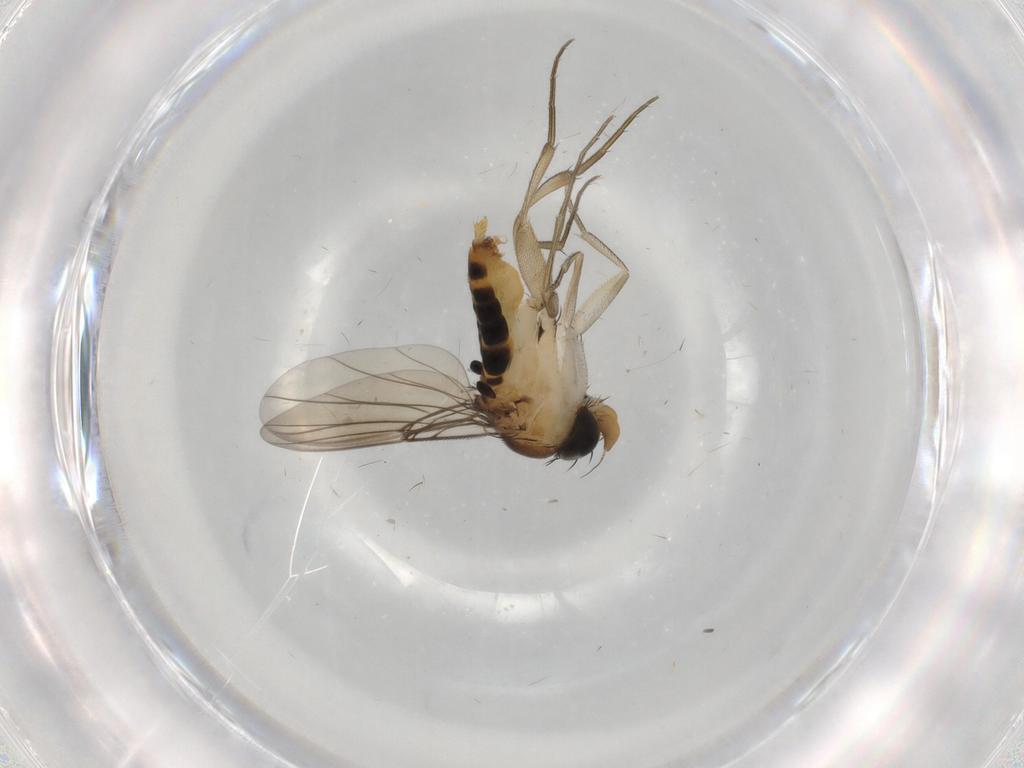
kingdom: Animalia
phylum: Arthropoda
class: Insecta
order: Diptera
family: Phoridae
